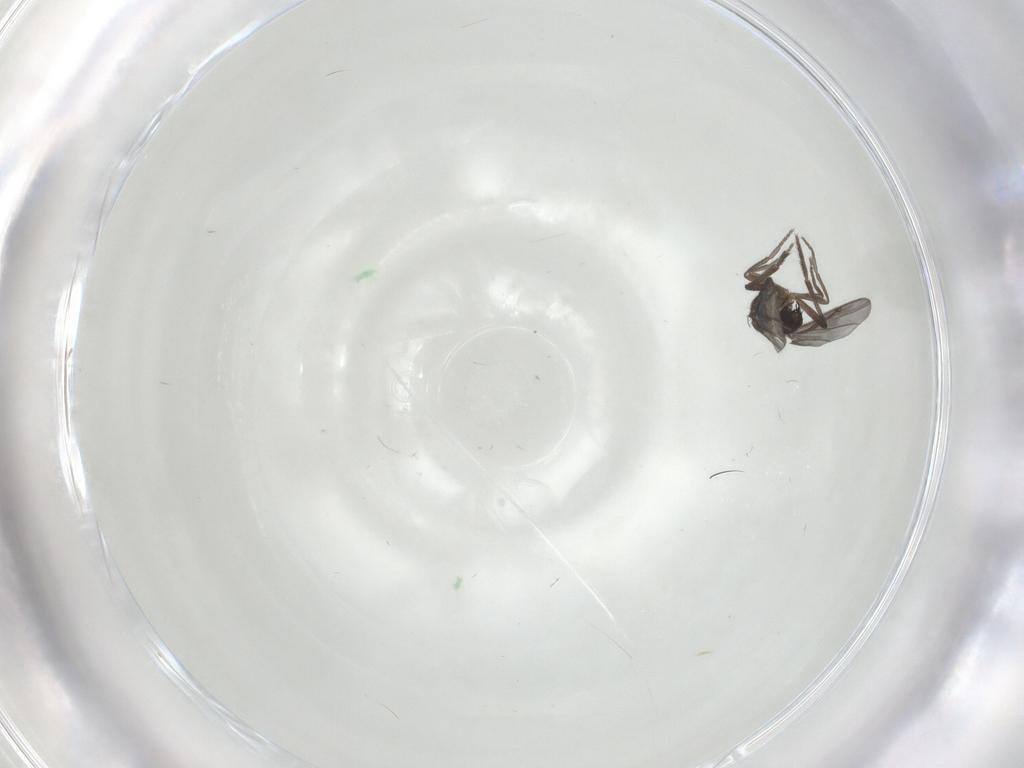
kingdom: Animalia
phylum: Arthropoda
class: Insecta
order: Diptera
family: Phoridae
